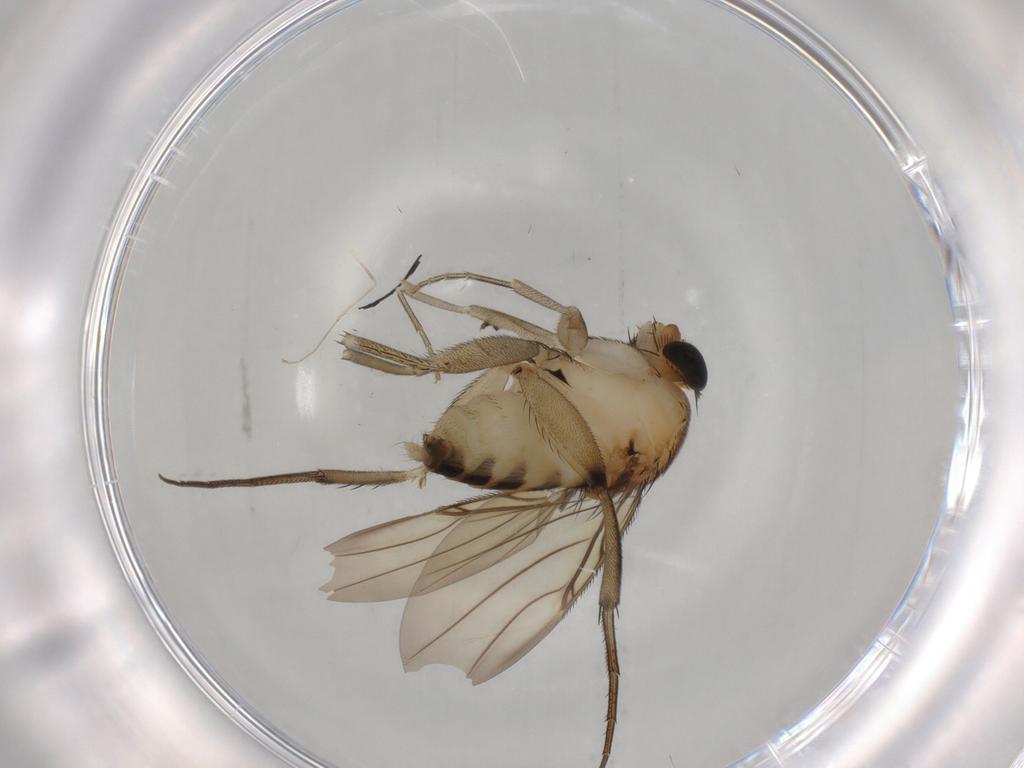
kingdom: Animalia
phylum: Arthropoda
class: Insecta
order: Diptera
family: Phoridae
